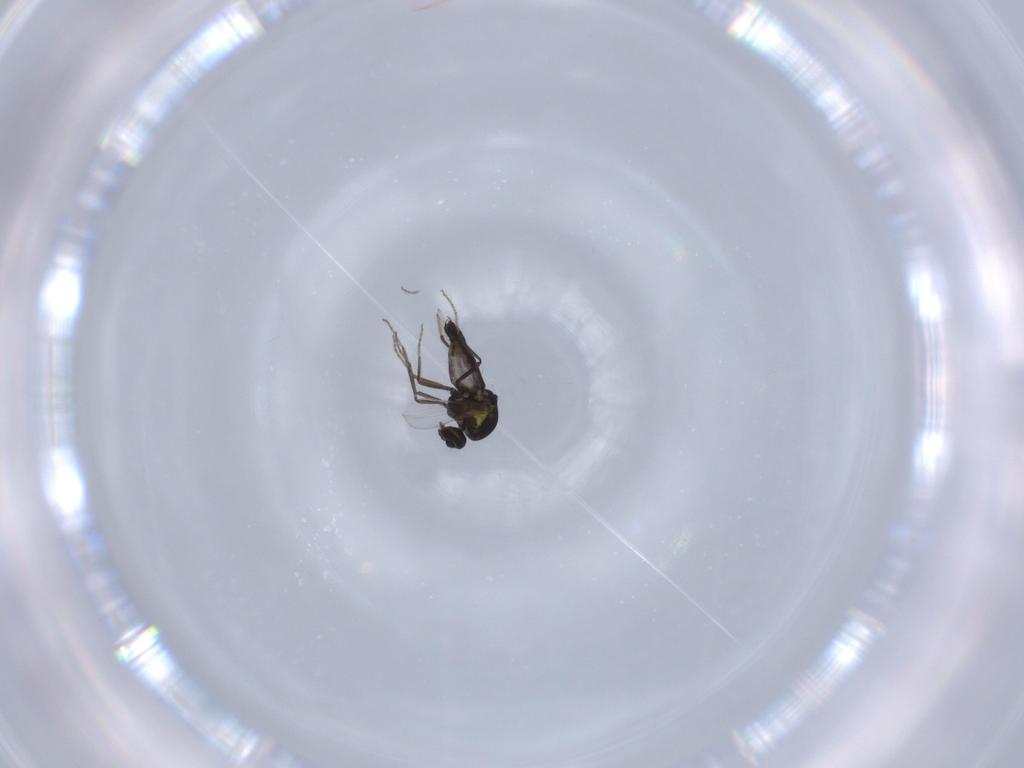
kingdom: Animalia
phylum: Arthropoda
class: Insecta
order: Diptera
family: Ceratopogonidae
